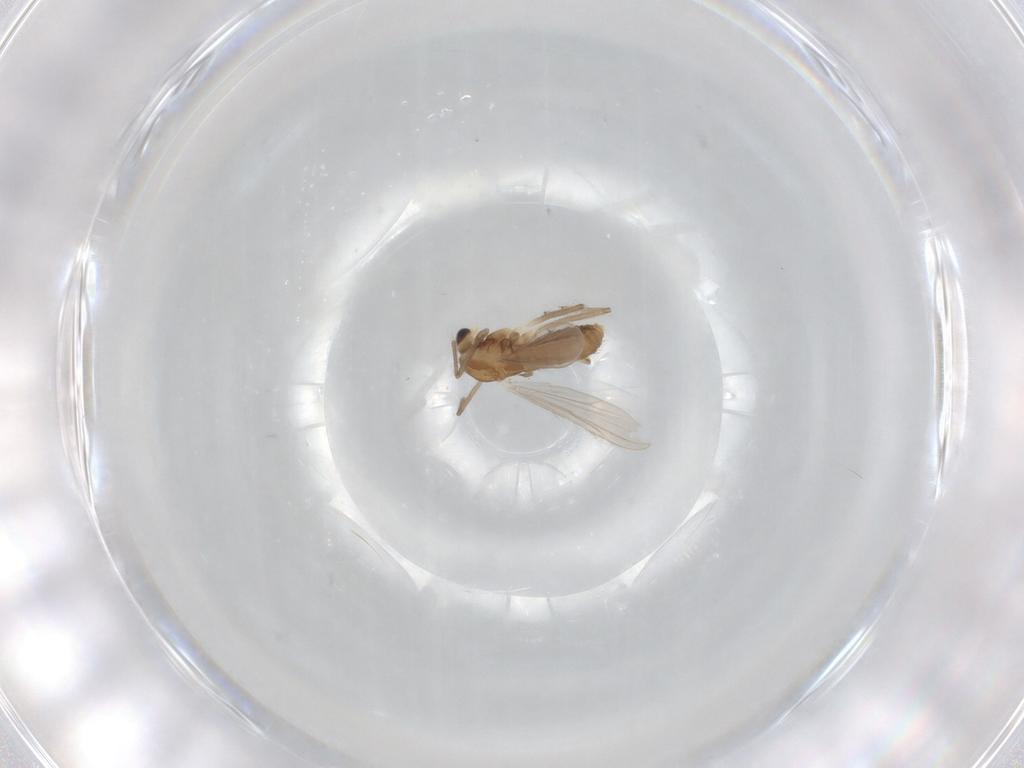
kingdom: Animalia
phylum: Arthropoda
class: Insecta
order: Diptera
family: Chironomidae
